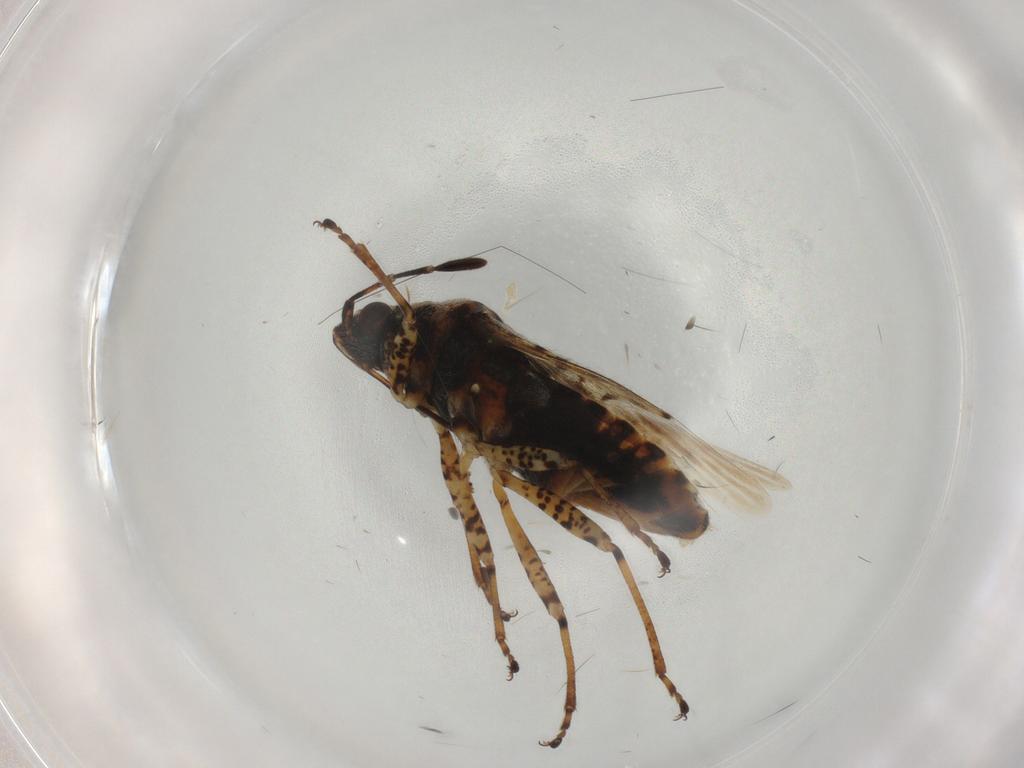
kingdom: Animalia
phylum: Arthropoda
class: Insecta
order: Hemiptera
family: Lygaeidae
